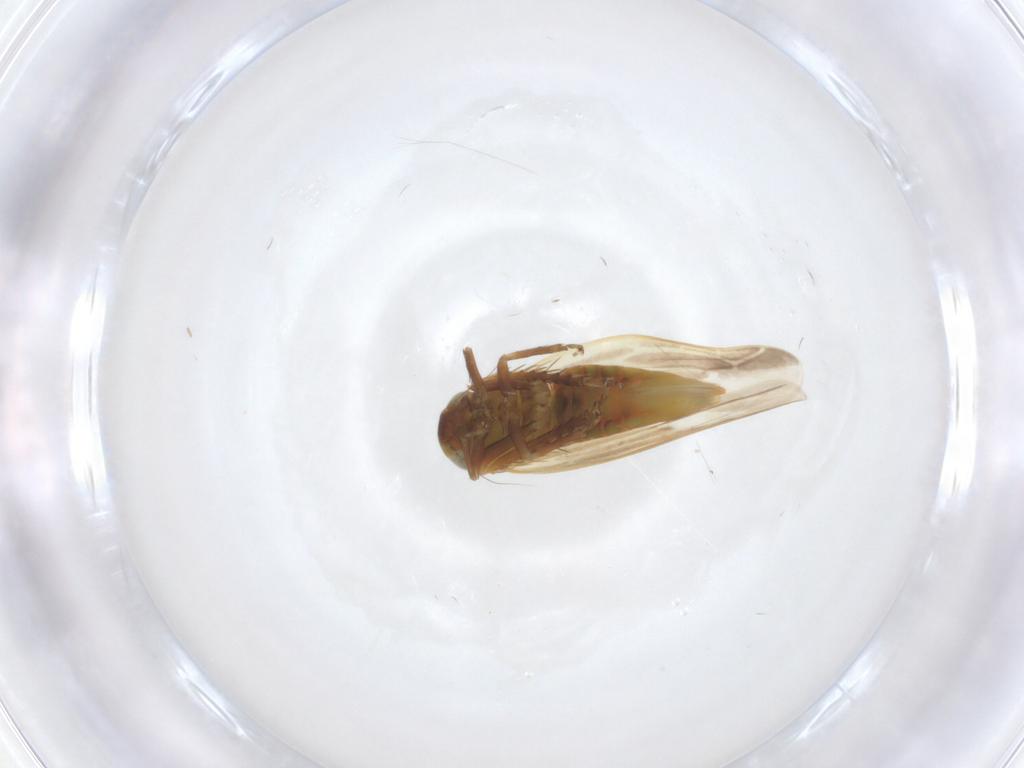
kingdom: Animalia
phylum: Arthropoda
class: Insecta
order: Hemiptera
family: Cicadellidae
